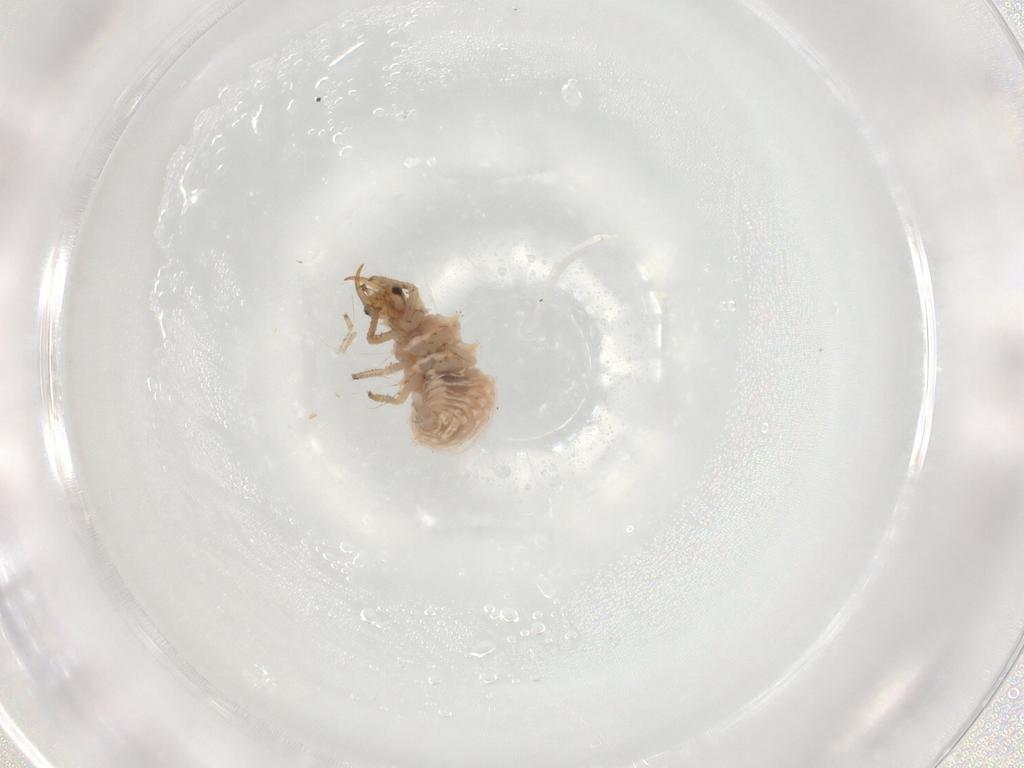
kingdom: Animalia
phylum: Arthropoda
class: Insecta
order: Neuroptera
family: Chrysopidae
